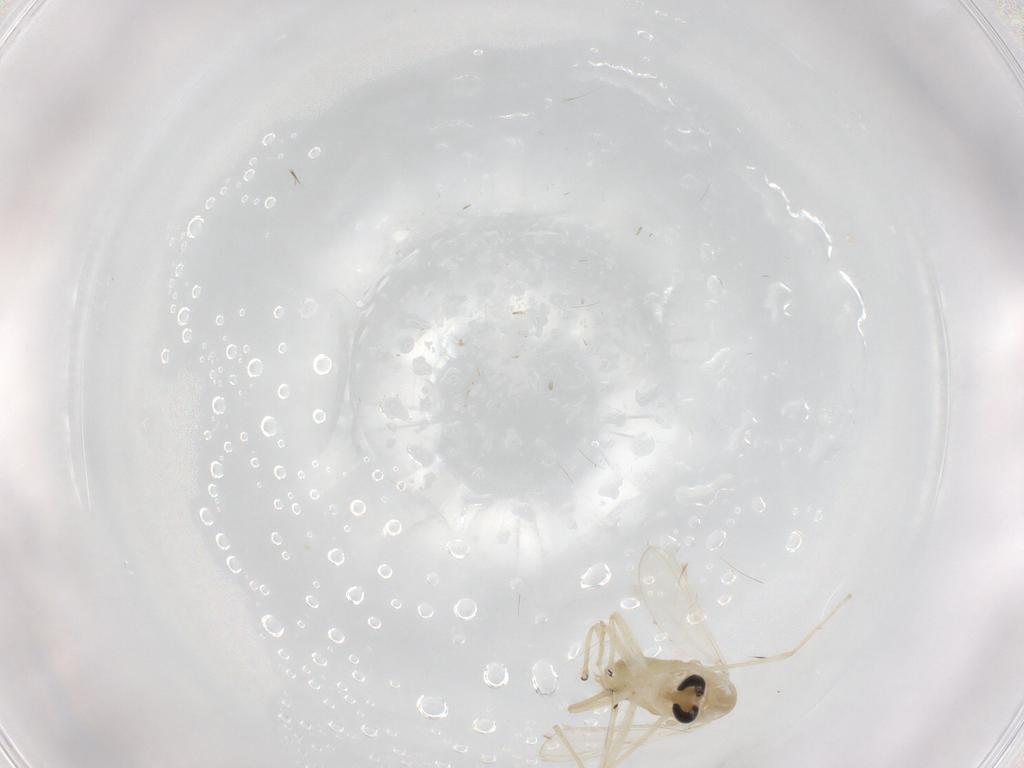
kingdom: Animalia
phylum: Arthropoda
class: Insecta
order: Diptera
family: Chironomidae
